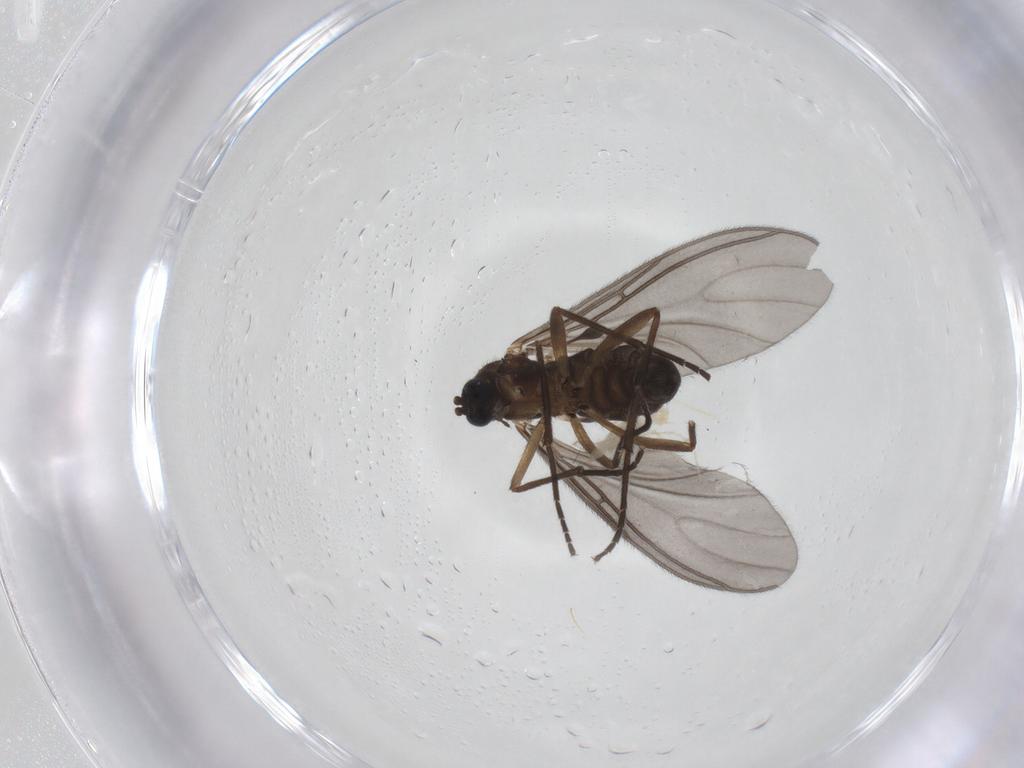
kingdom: Animalia
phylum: Arthropoda
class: Insecta
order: Diptera
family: Sciaridae
